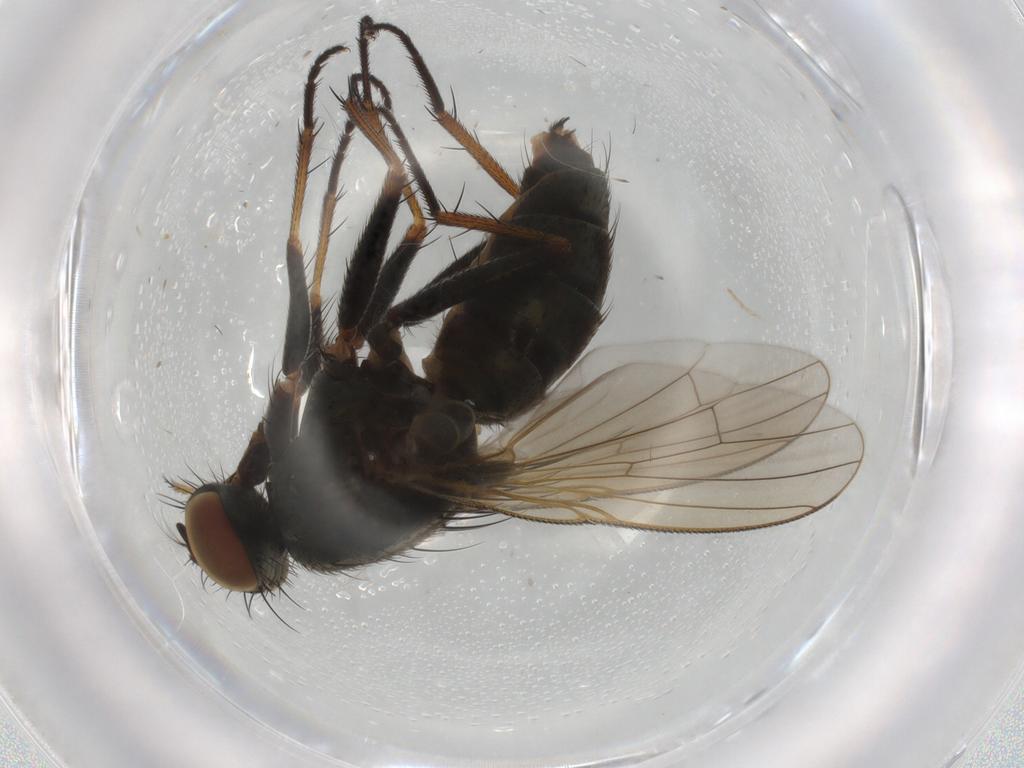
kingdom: Animalia
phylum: Arthropoda
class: Insecta
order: Diptera
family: Muscidae
